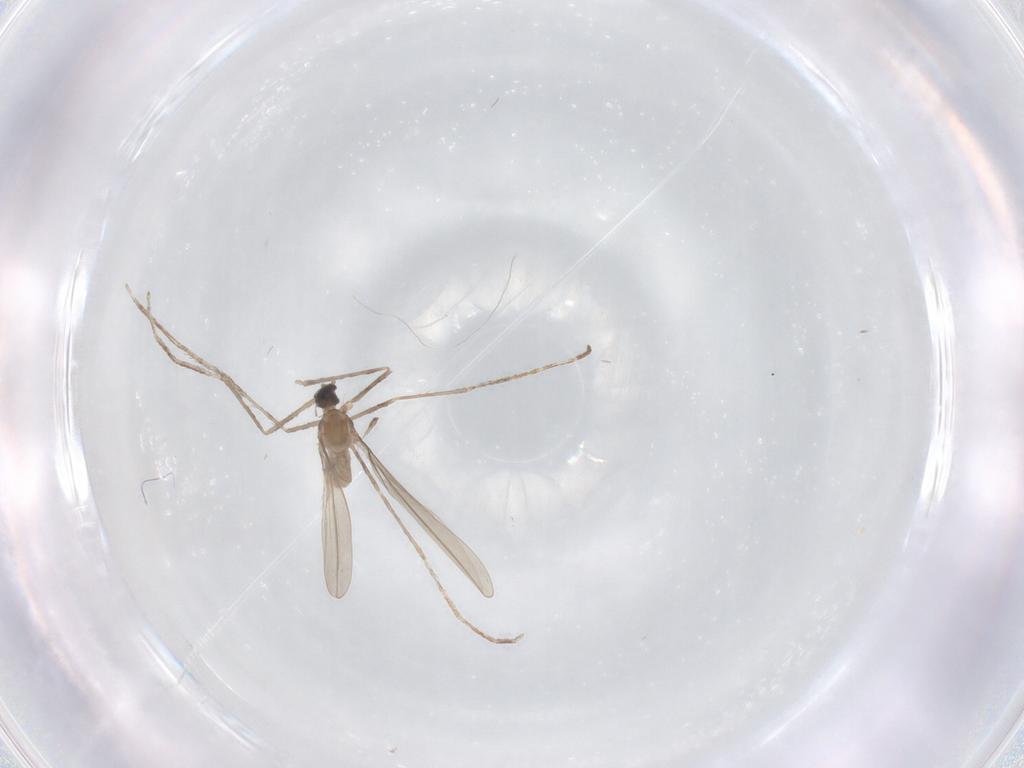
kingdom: Animalia
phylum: Arthropoda
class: Insecta
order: Diptera
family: Cecidomyiidae
